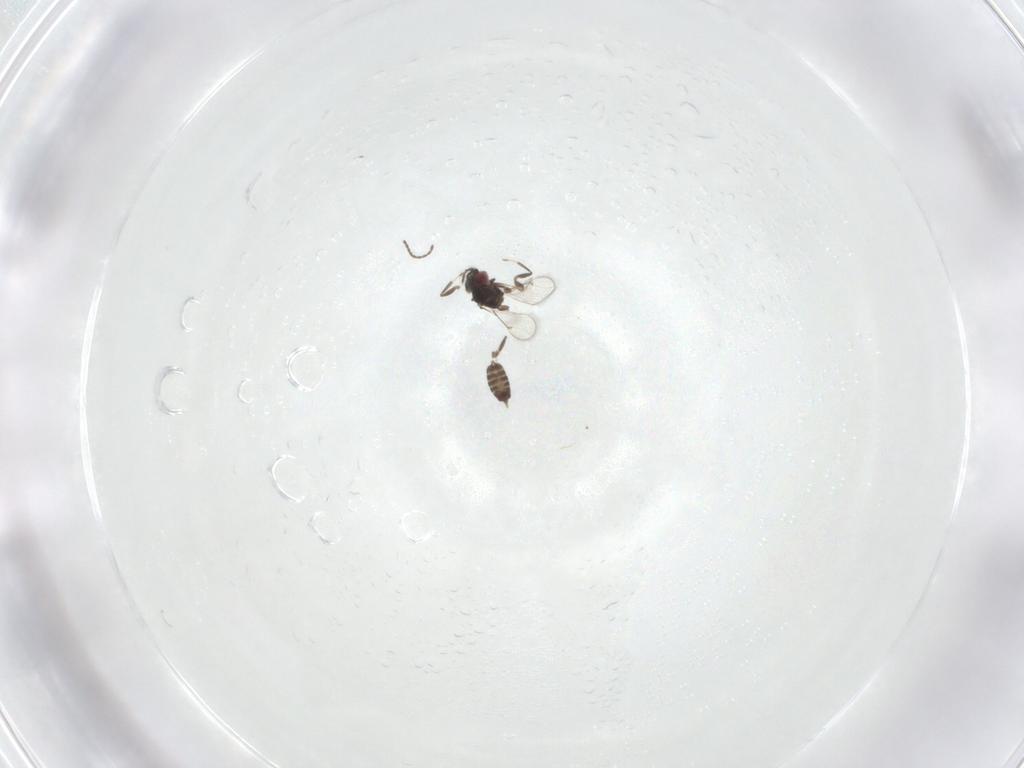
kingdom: Animalia
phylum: Arthropoda
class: Insecta
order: Hymenoptera
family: Eulophidae
